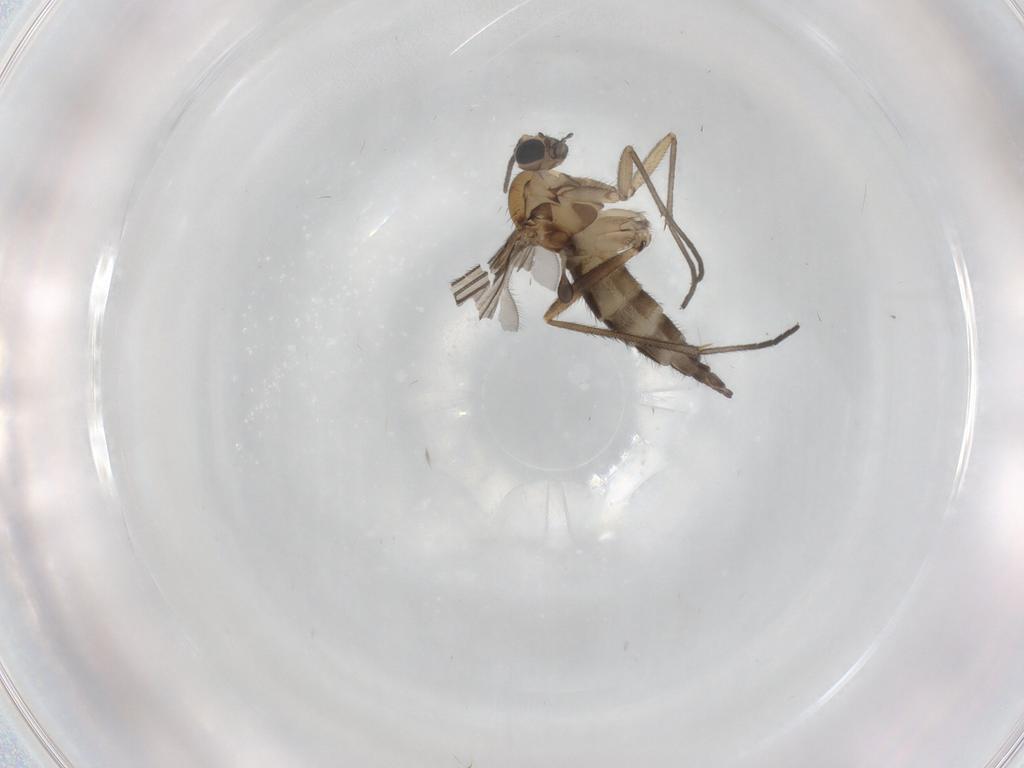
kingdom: Animalia
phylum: Arthropoda
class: Insecta
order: Diptera
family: Sciaridae
